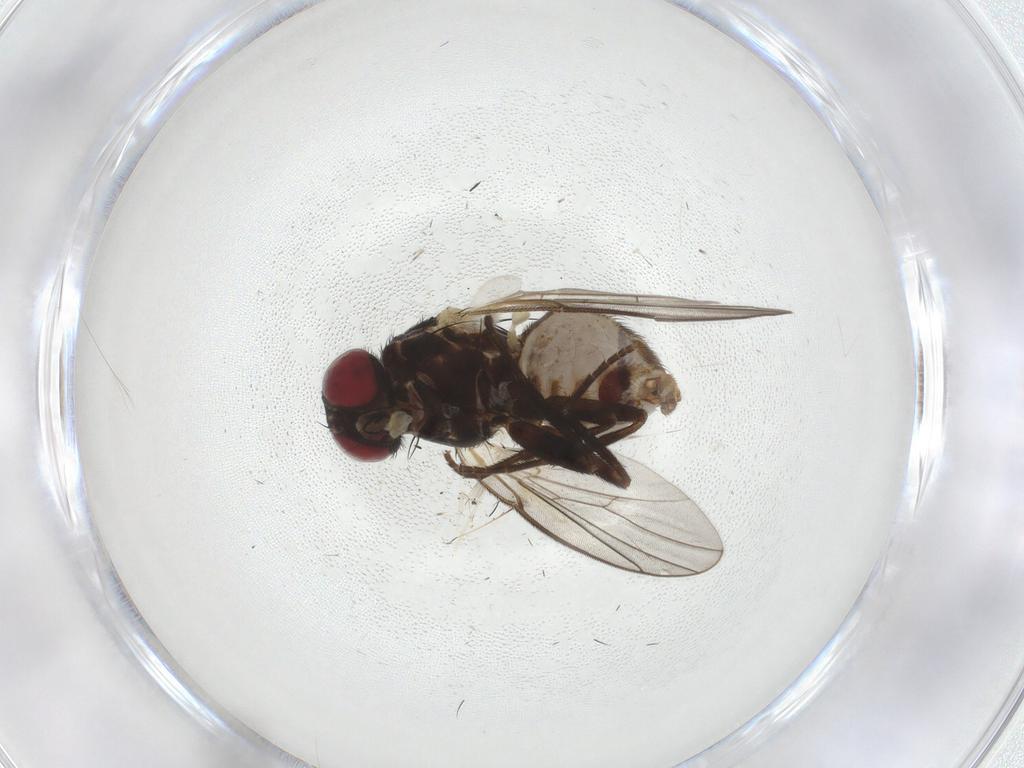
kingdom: Animalia
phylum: Arthropoda
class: Insecta
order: Diptera
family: Agromyzidae
